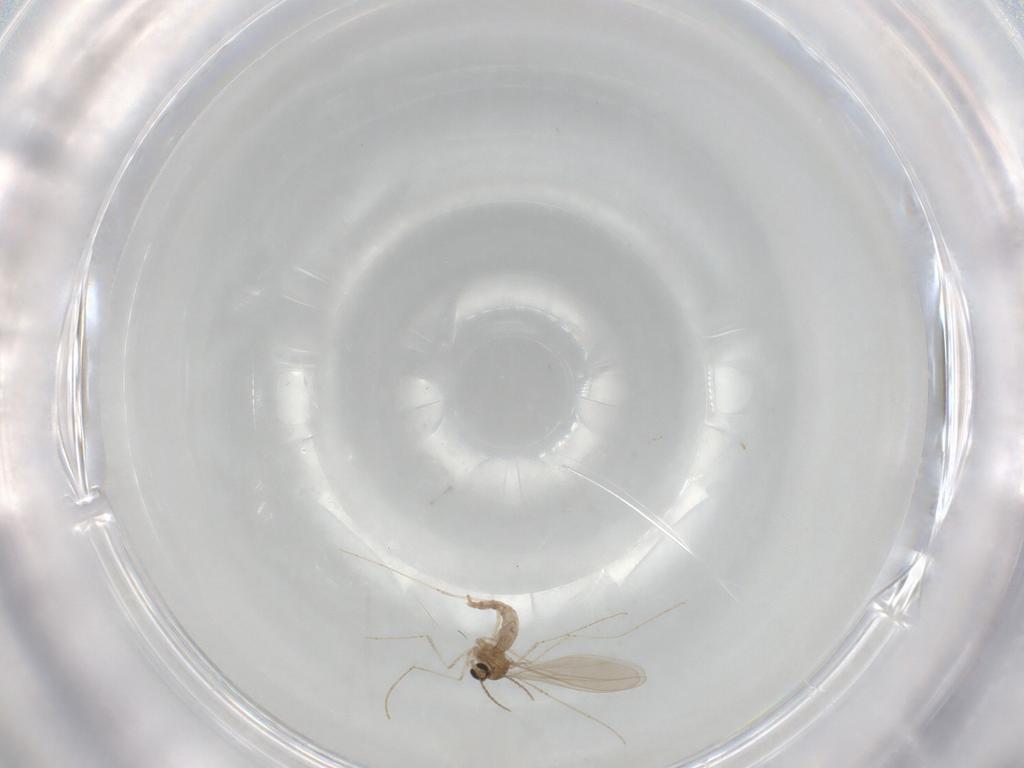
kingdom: Animalia
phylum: Arthropoda
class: Insecta
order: Diptera
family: Cecidomyiidae
